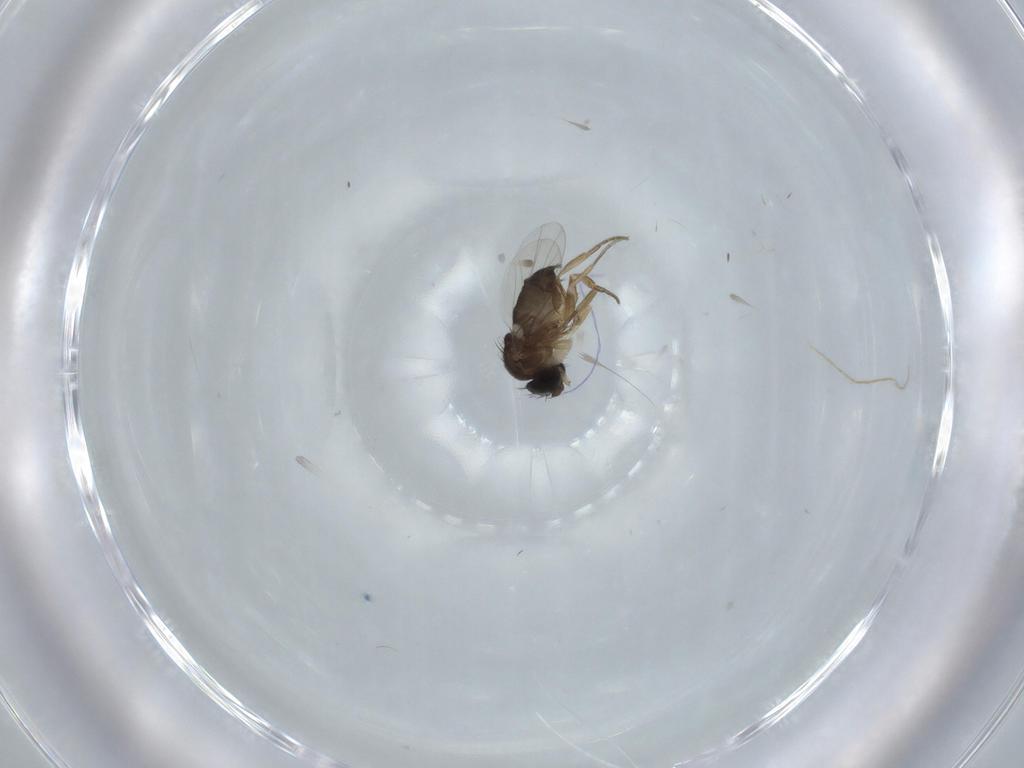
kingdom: Animalia
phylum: Arthropoda
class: Insecta
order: Diptera
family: Phoridae
